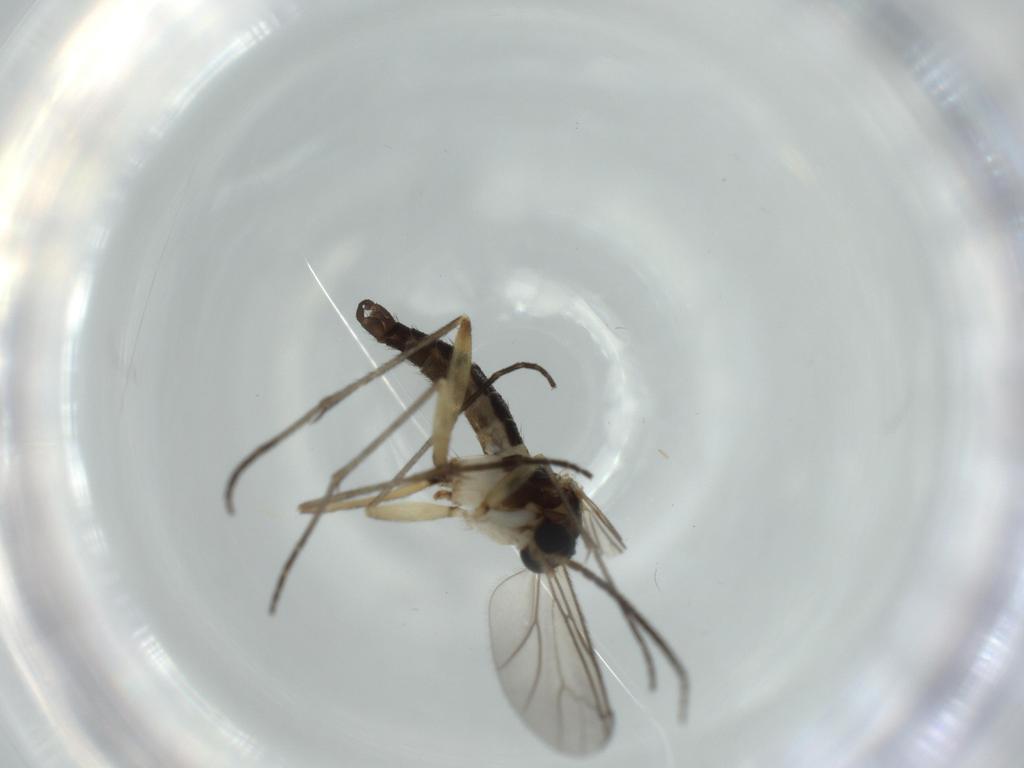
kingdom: Animalia
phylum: Arthropoda
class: Insecta
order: Diptera
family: Sciaridae
